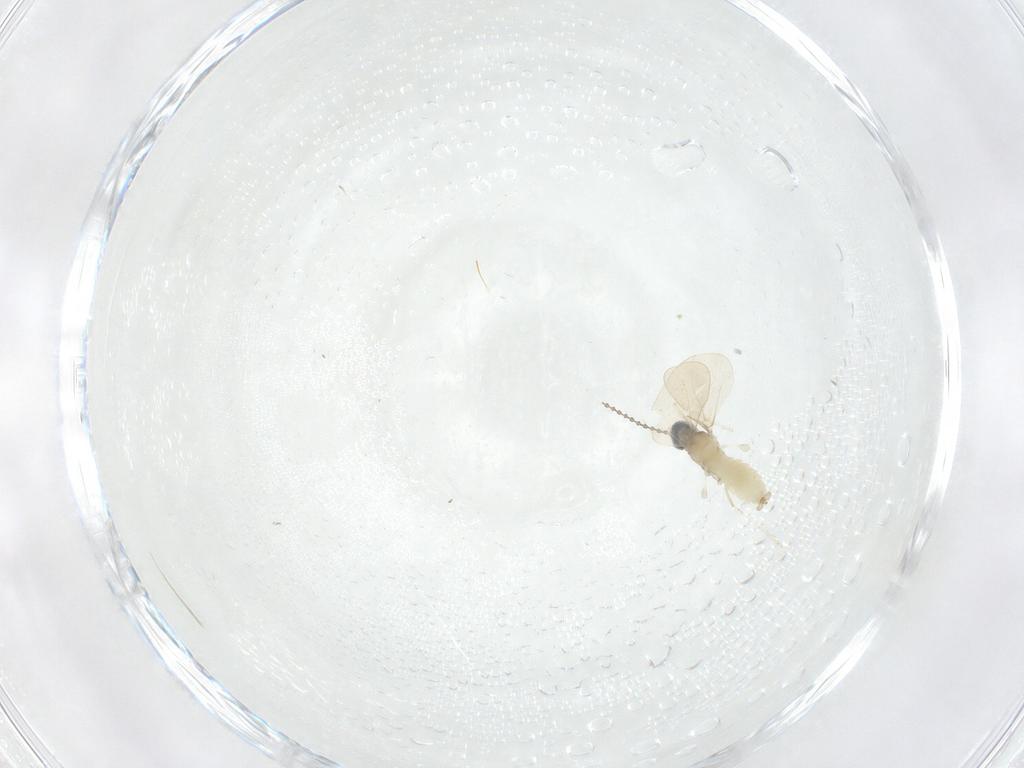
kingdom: Animalia
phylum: Arthropoda
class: Insecta
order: Diptera
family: Cecidomyiidae
